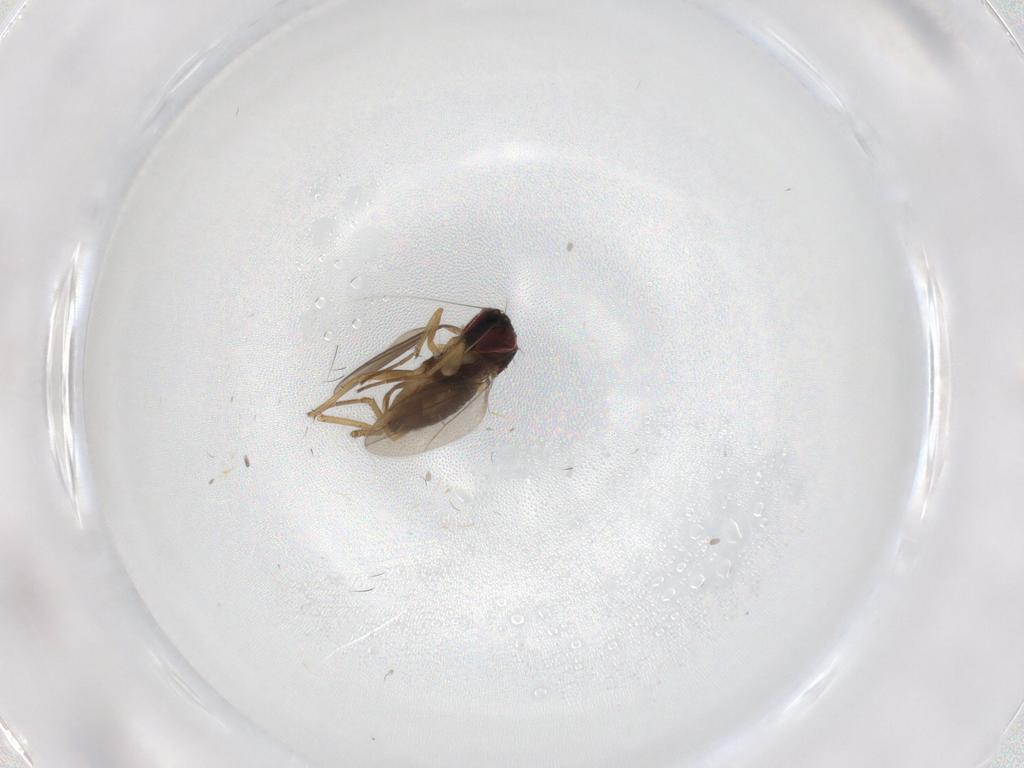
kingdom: Animalia
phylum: Arthropoda
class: Insecta
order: Diptera
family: Dolichopodidae
